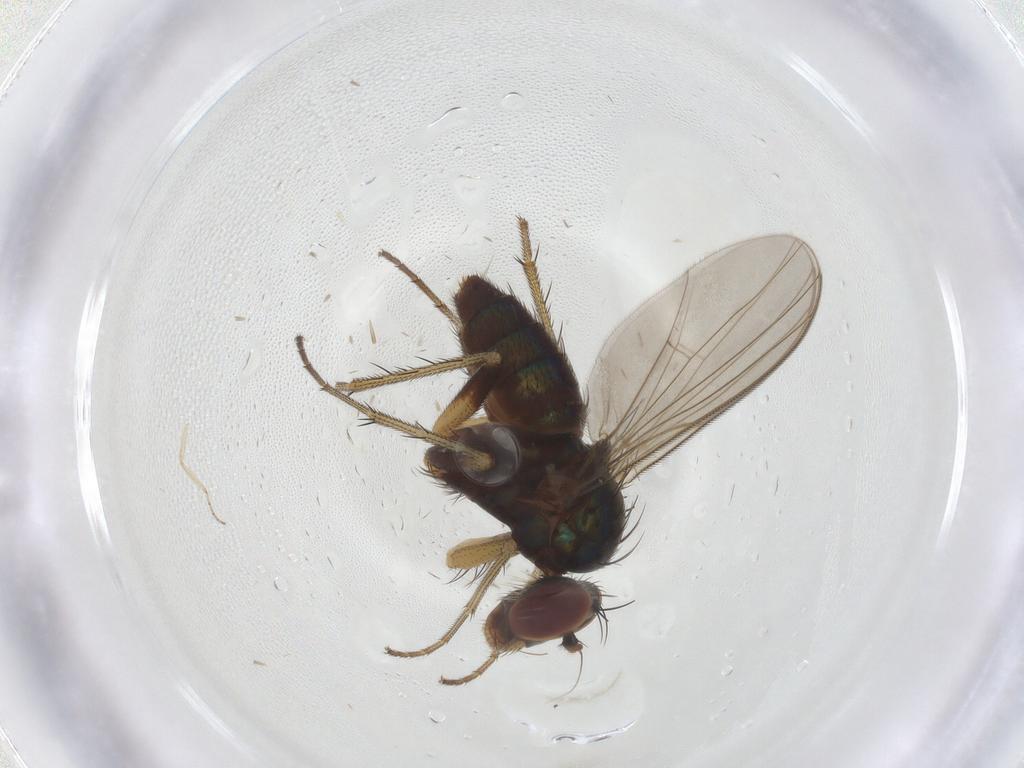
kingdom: Animalia
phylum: Arthropoda
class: Insecta
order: Diptera
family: Dolichopodidae
